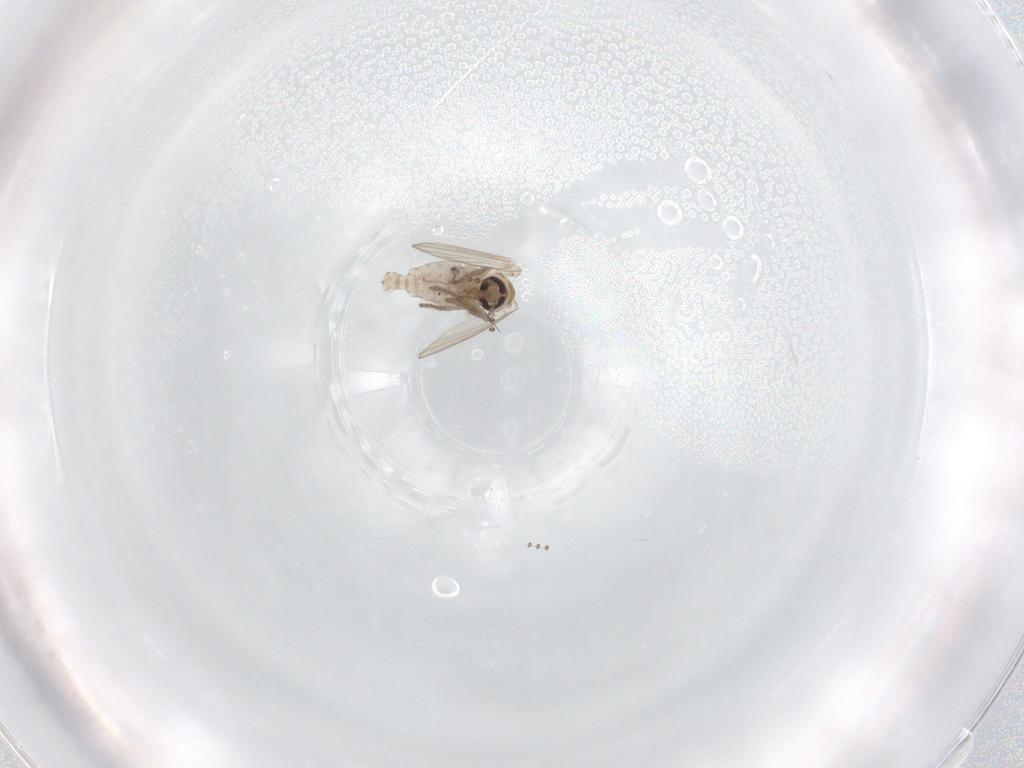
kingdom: Animalia
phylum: Arthropoda
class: Insecta
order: Diptera
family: Psychodidae
